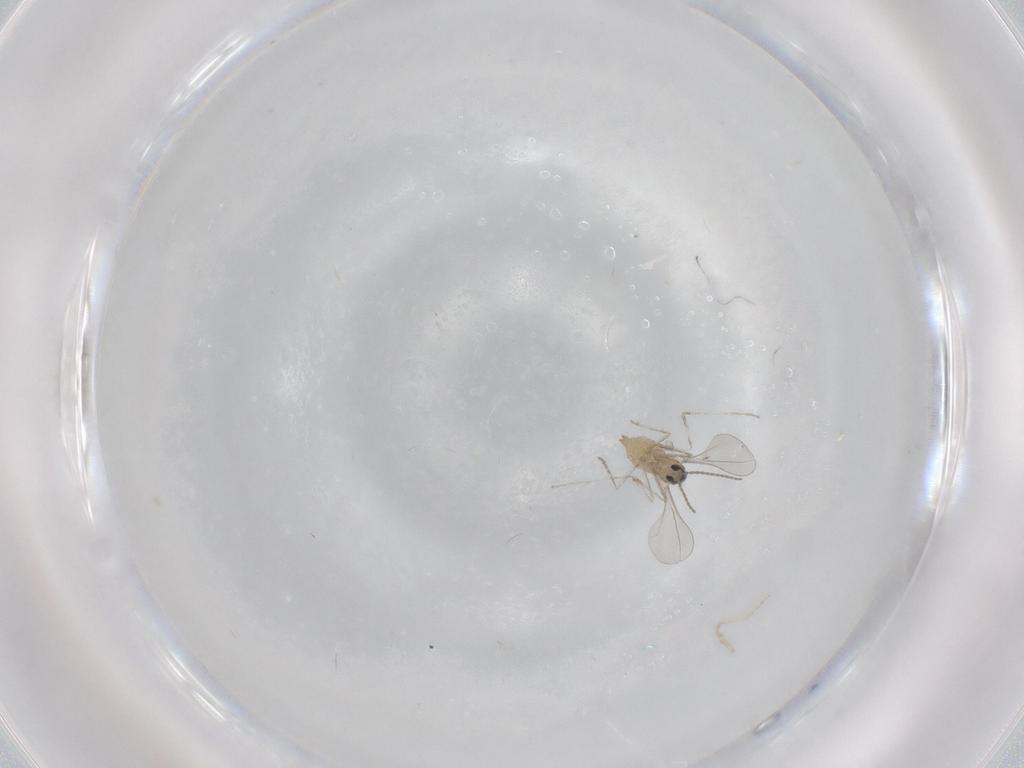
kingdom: Animalia
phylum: Arthropoda
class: Insecta
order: Diptera
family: Cecidomyiidae
